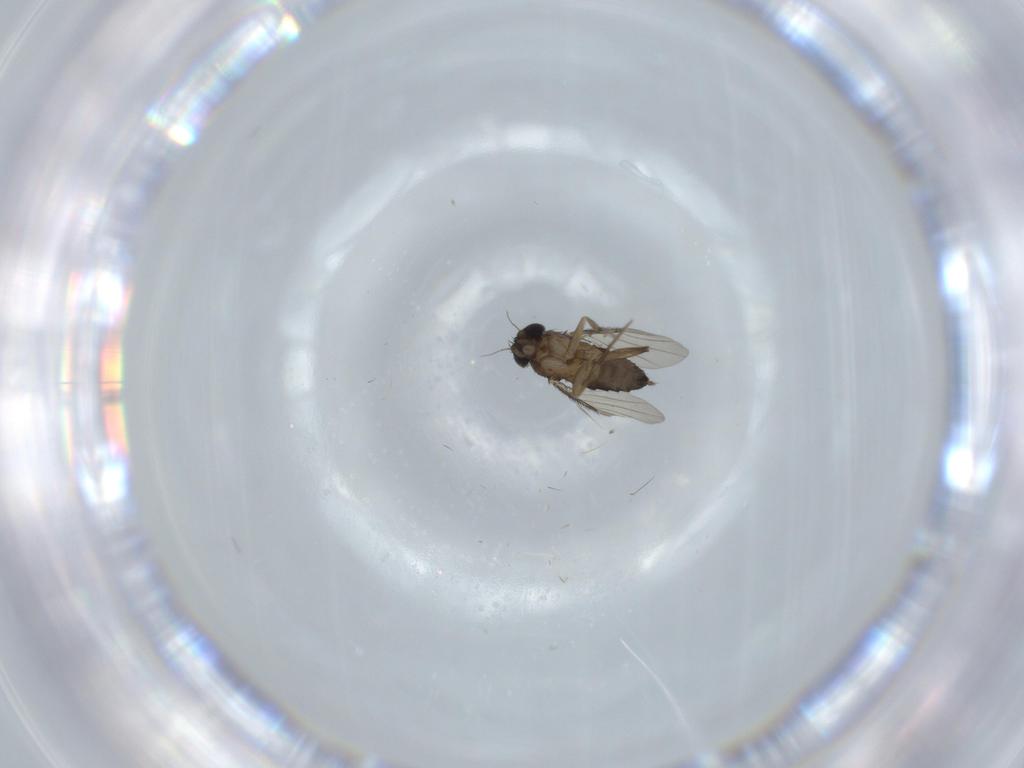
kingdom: Animalia
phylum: Arthropoda
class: Insecta
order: Diptera
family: Phoridae
